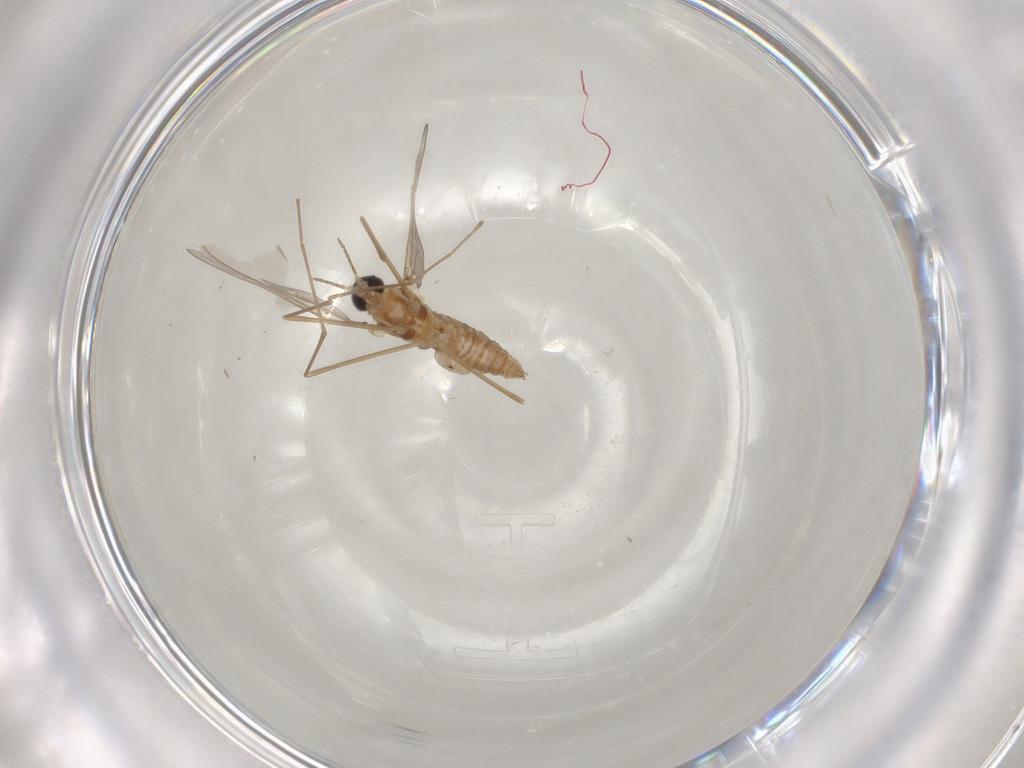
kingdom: Animalia
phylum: Arthropoda
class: Insecta
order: Diptera
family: Cecidomyiidae
